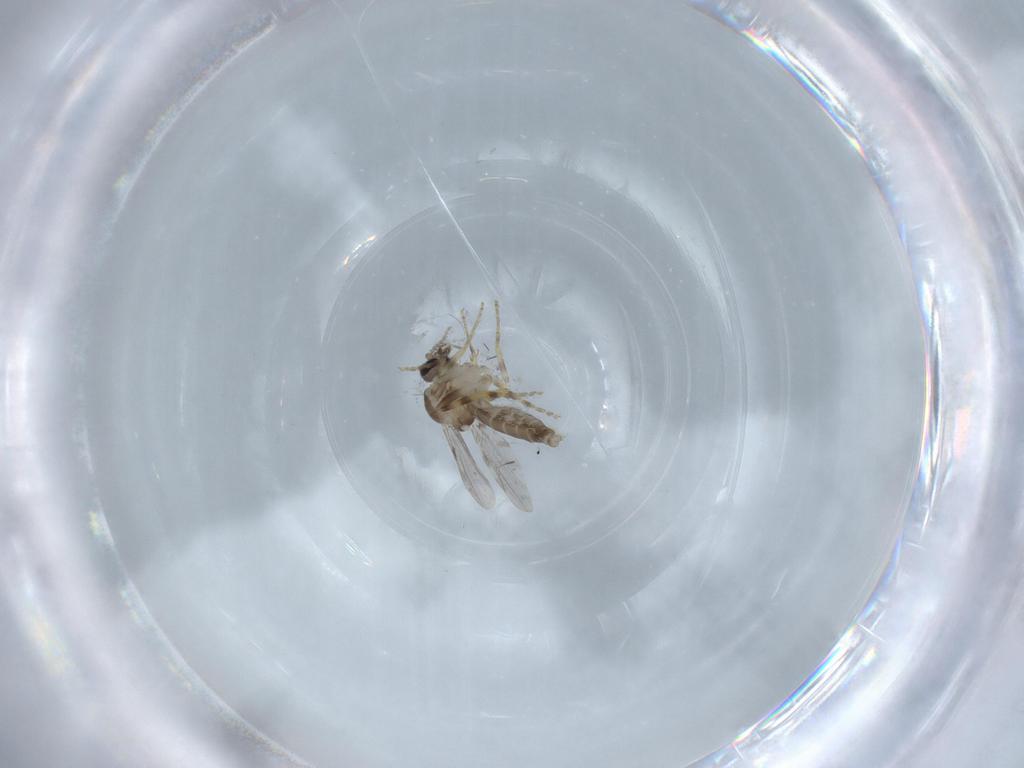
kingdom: Animalia
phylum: Arthropoda
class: Insecta
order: Diptera
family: Ceratopogonidae
